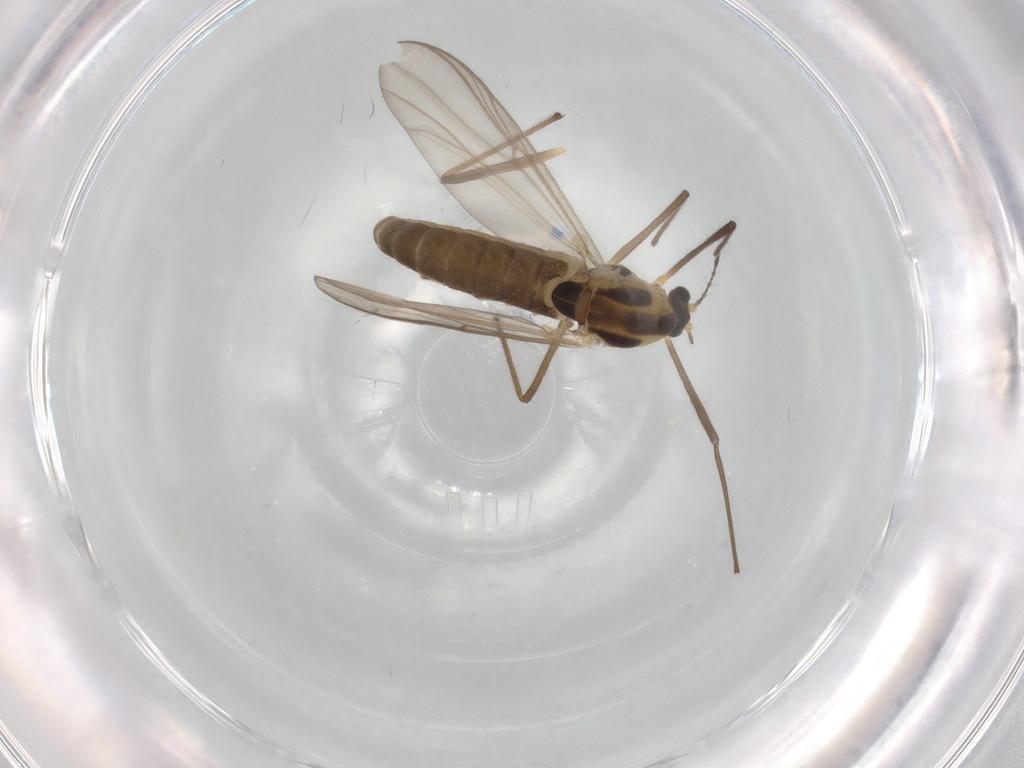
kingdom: Animalia
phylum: Arthropoda
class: Insecta
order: Diptera
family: Chironomidae
